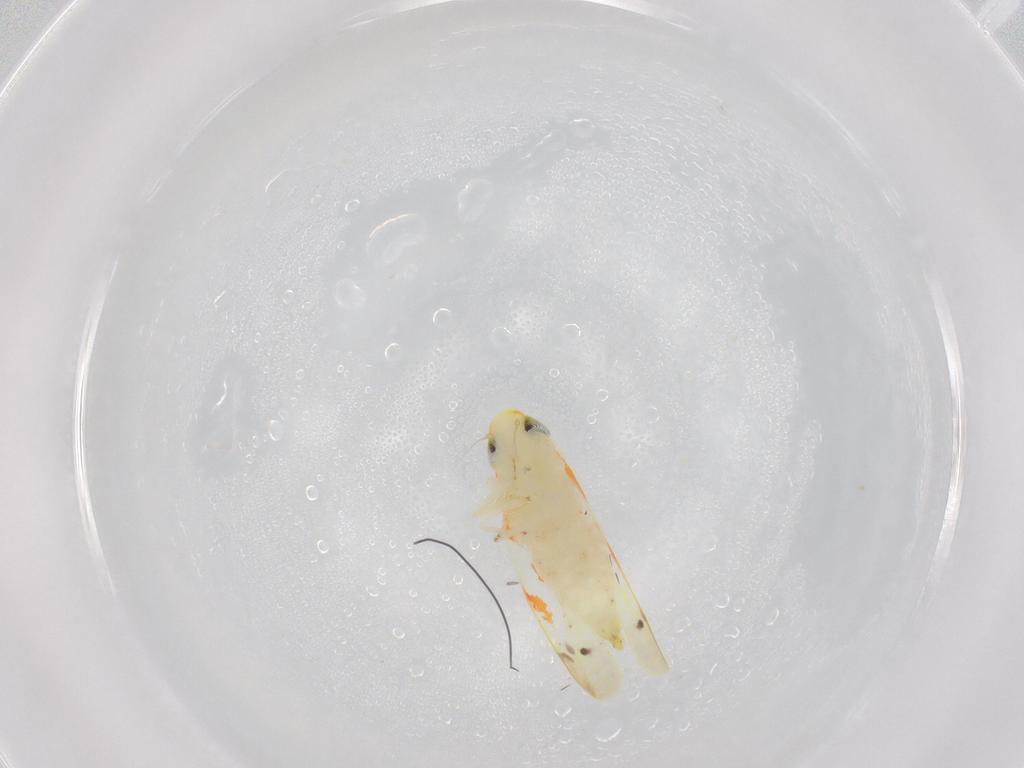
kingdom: Animalia
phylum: Arthropoda
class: Insecta
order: Hemiptera
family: Cicadellidae
